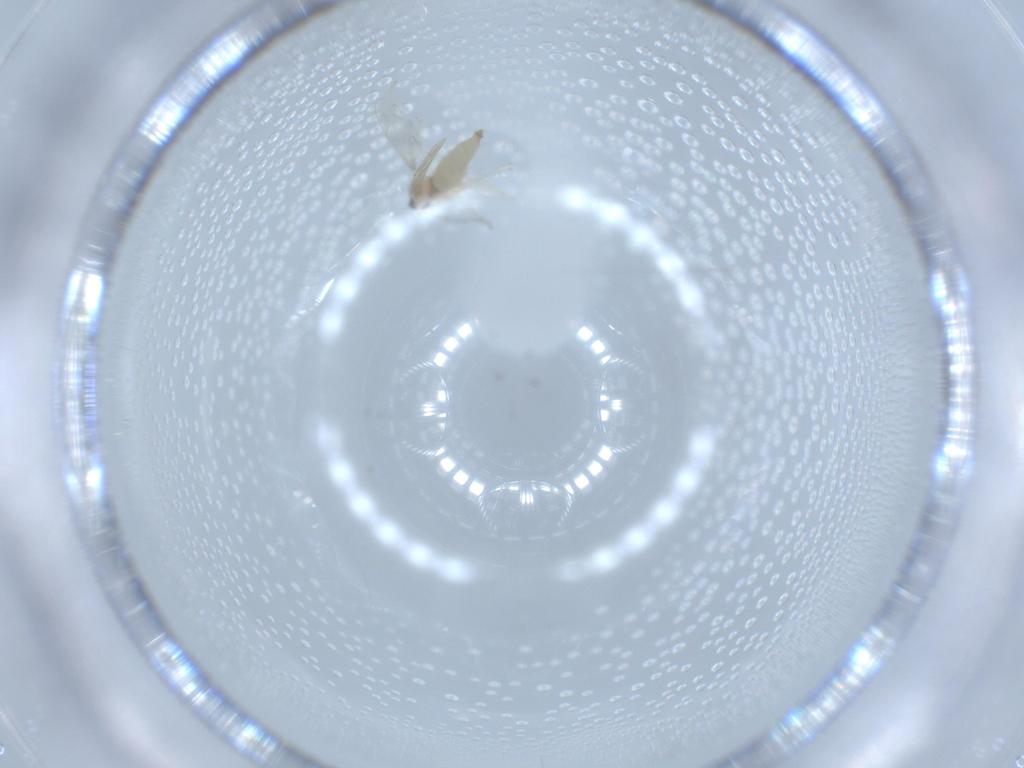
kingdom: Animalia
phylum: Arthropoda
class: Insecta
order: Diptera
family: Cecidomyiidae
